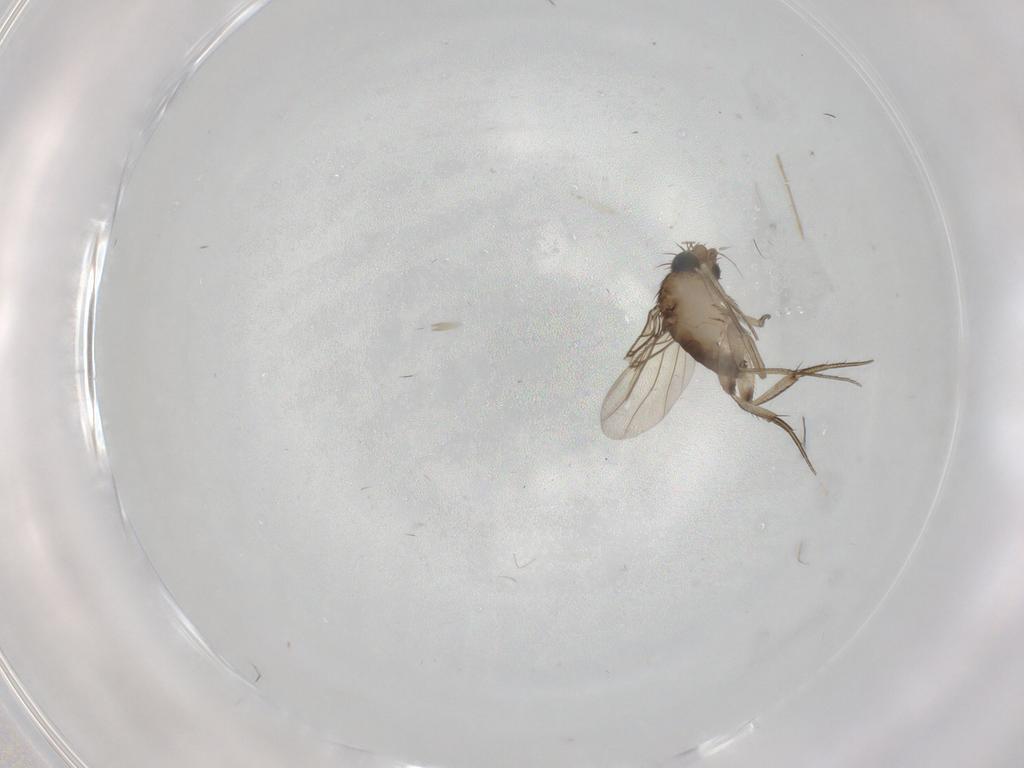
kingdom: Animalia
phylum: Arthropoda
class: Insecta
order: Diptera
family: Phoridae
